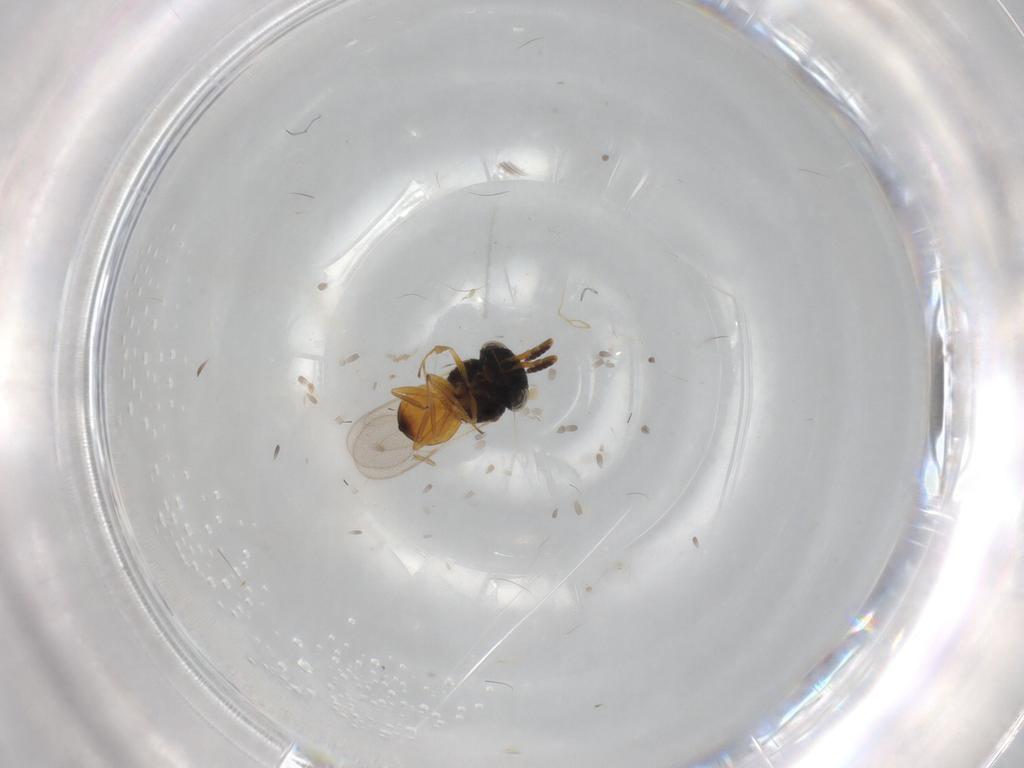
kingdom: Animalia
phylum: Arthropoda
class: Insecta
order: Hymenoptera
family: Scelionidae
